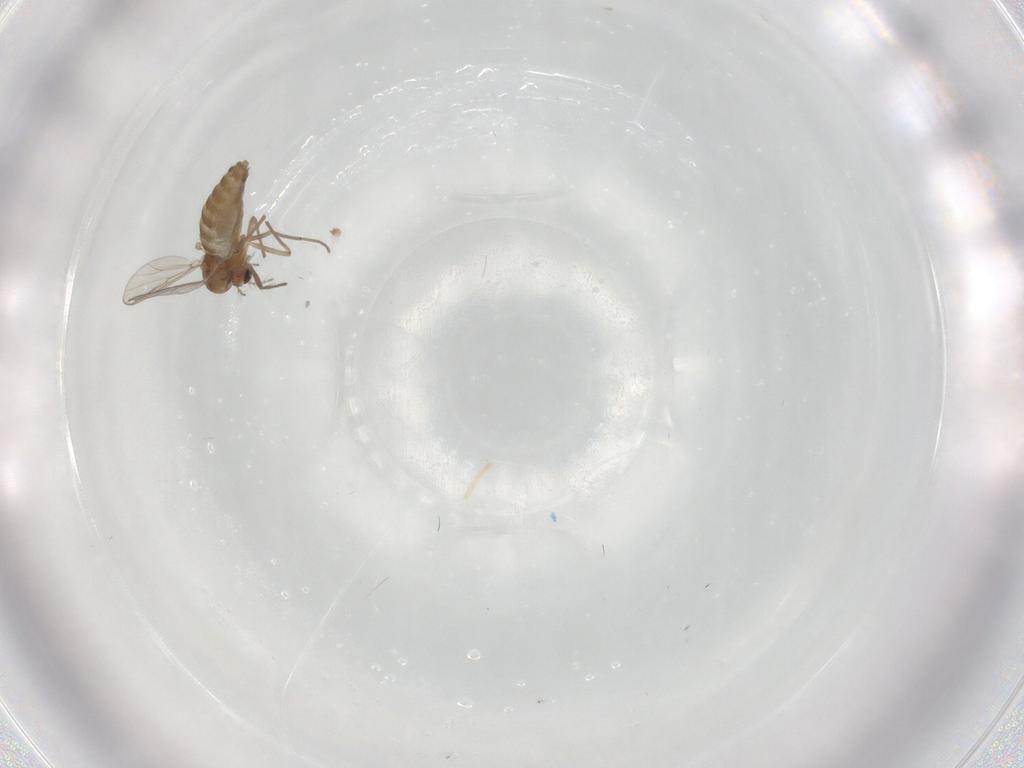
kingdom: Animalia
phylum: Arthropoda
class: Insecta
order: Diptera
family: Chironomidae
